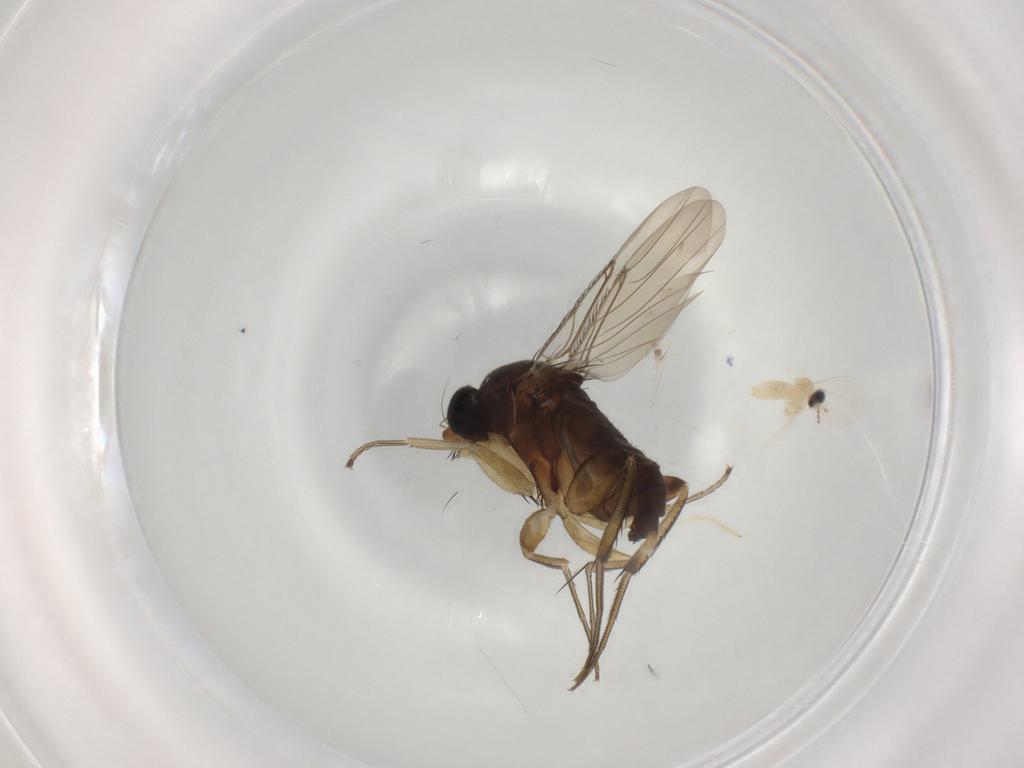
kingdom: Animalia
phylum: Arthropoda
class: Insecta
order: Diptera
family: Phoridae
